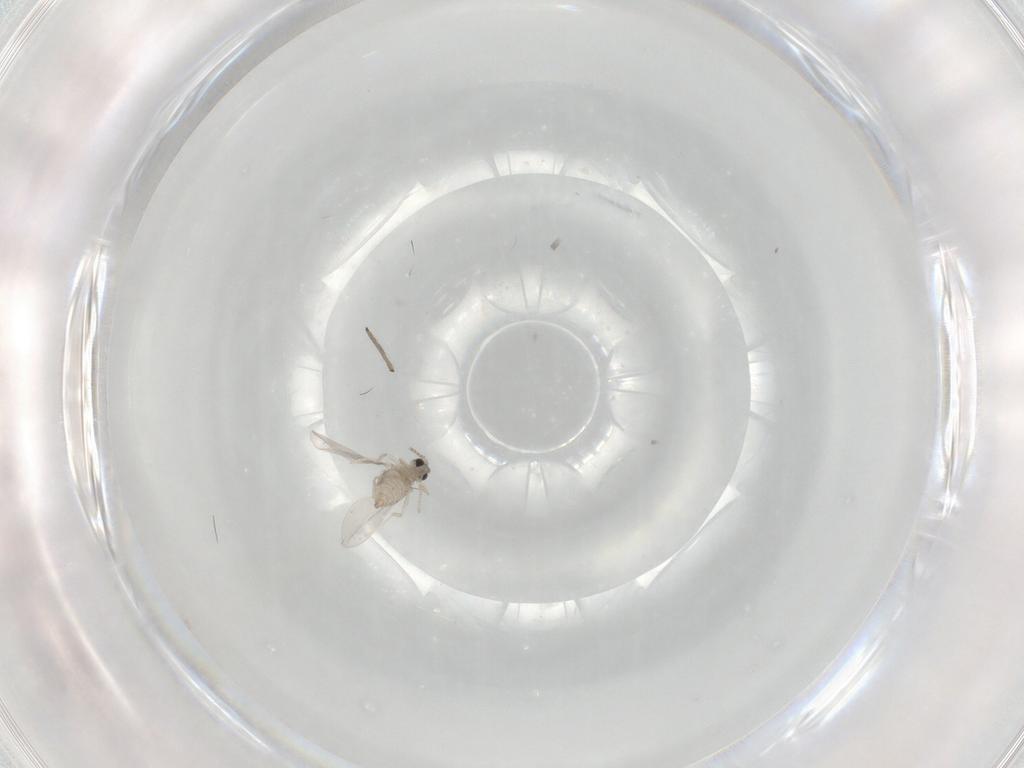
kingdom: Animalia
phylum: Arthropoda
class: Insecta
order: Diptera
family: Cecidomyiidae
